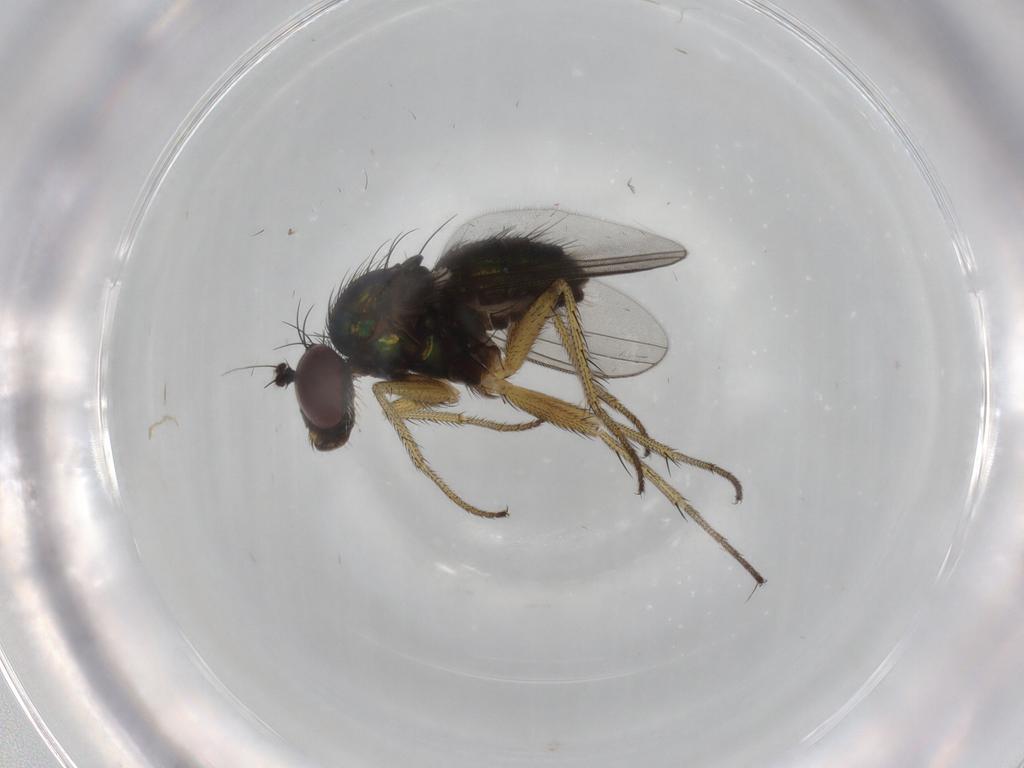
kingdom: Animalia
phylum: Arthropoda
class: Insecta
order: Diptera
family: Dolichopodidae
